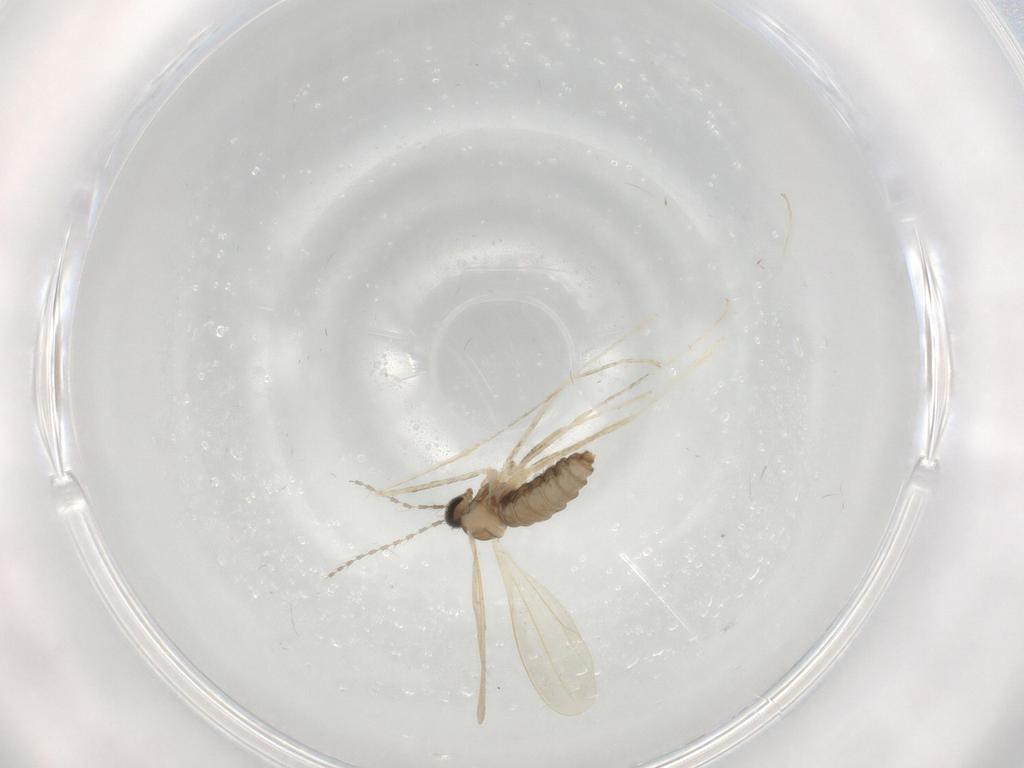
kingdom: Animalia
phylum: Arthropoda
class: Insecta
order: Diptera
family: Cecidomyiidae
